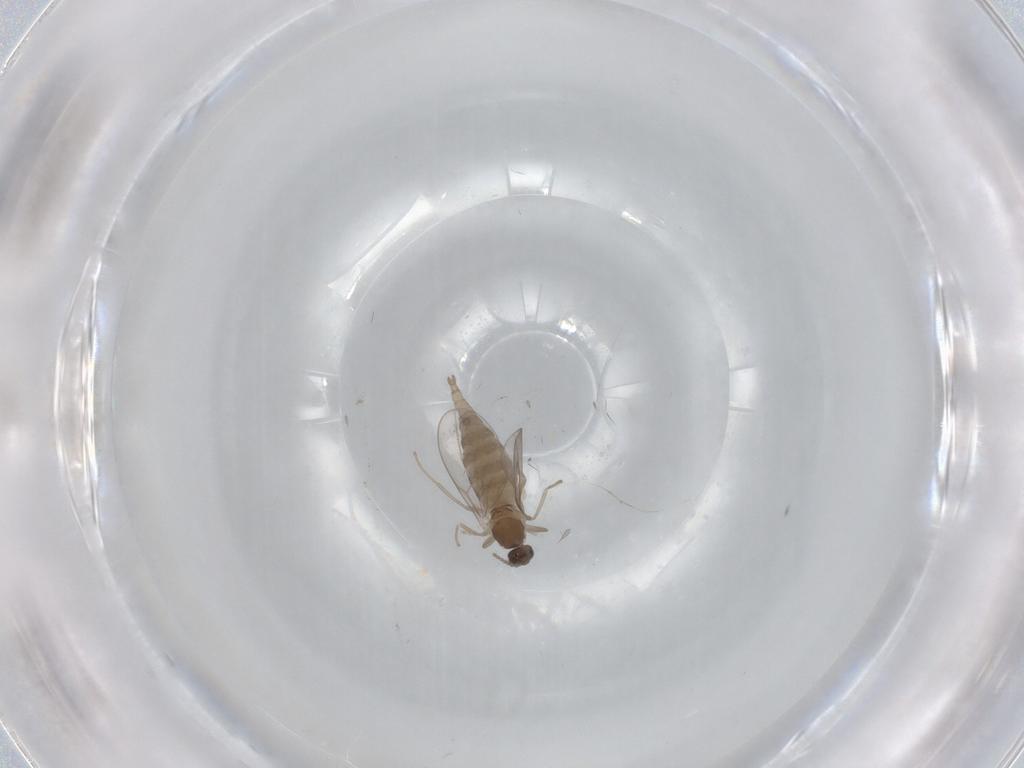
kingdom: Animalia
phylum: Arthropoda
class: Insecta
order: Diptera
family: Cecidomyiidae
